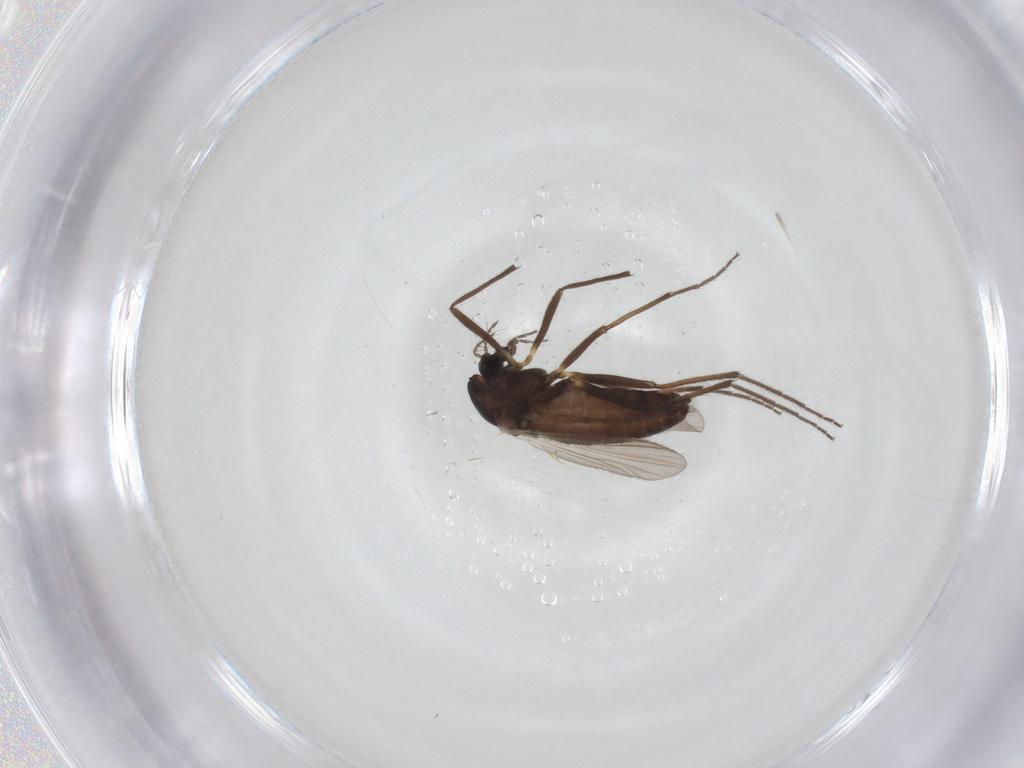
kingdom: Animalia
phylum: Arthropoda
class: Insecta
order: Diptera
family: Chironomidae
